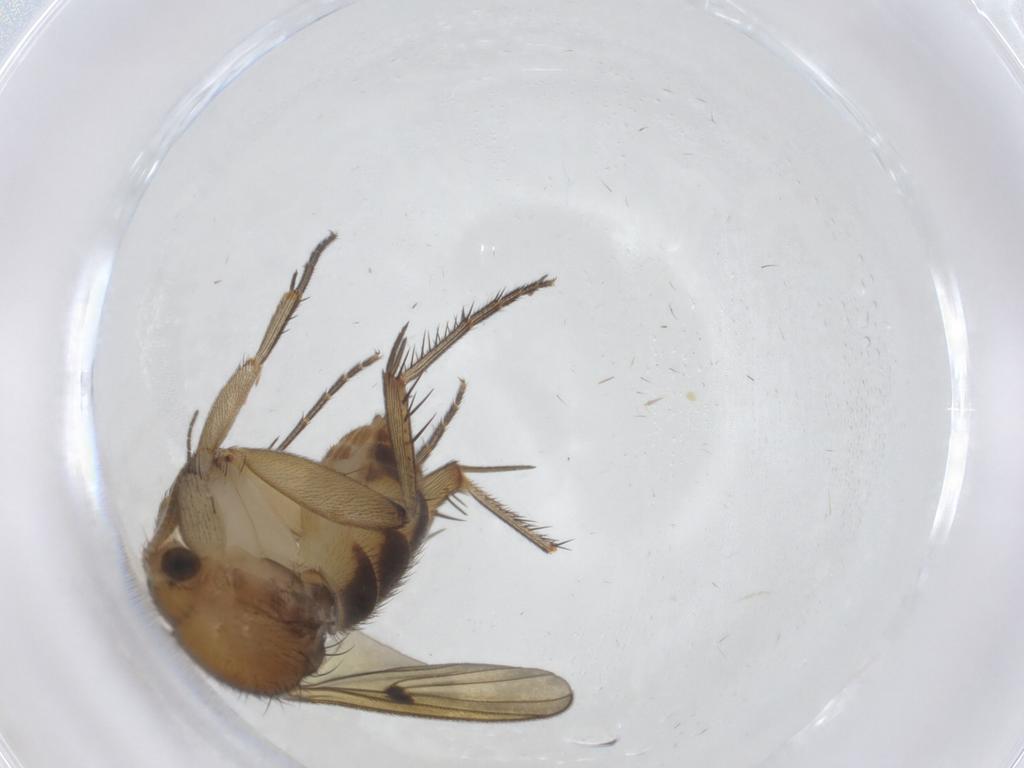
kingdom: Animalia
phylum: Arthropoda
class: Insecta
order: Diptera
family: Mycetophilidae
